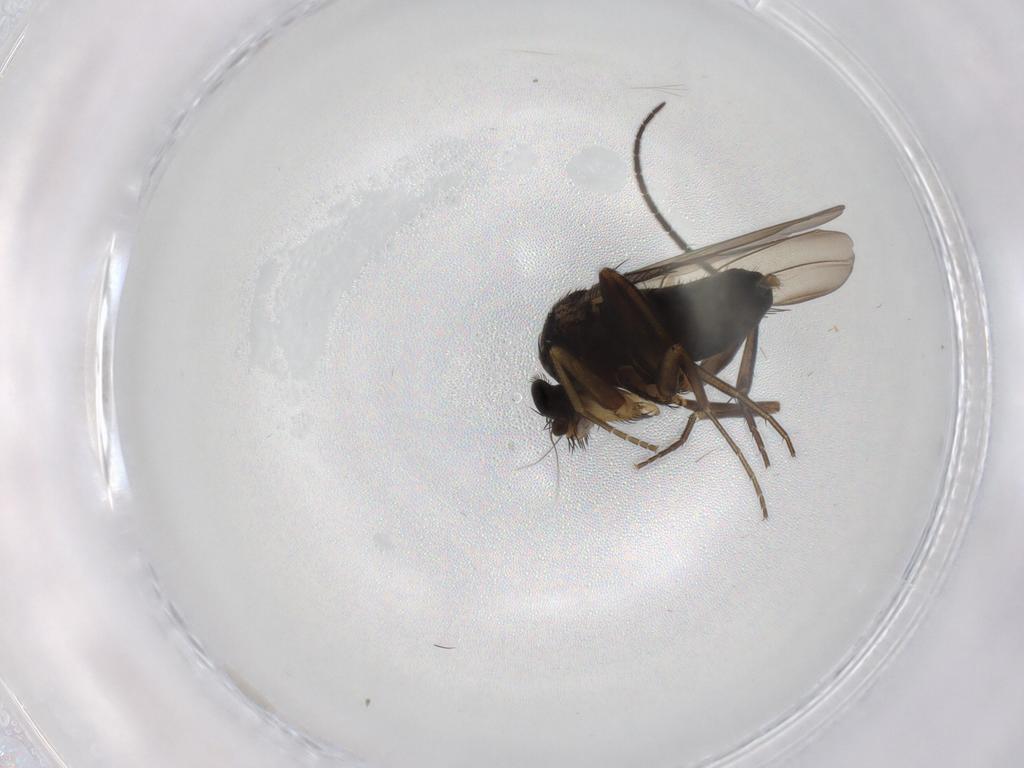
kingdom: Animalia
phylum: Arthropoda
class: Insecta
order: Diptera
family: Phoridae
